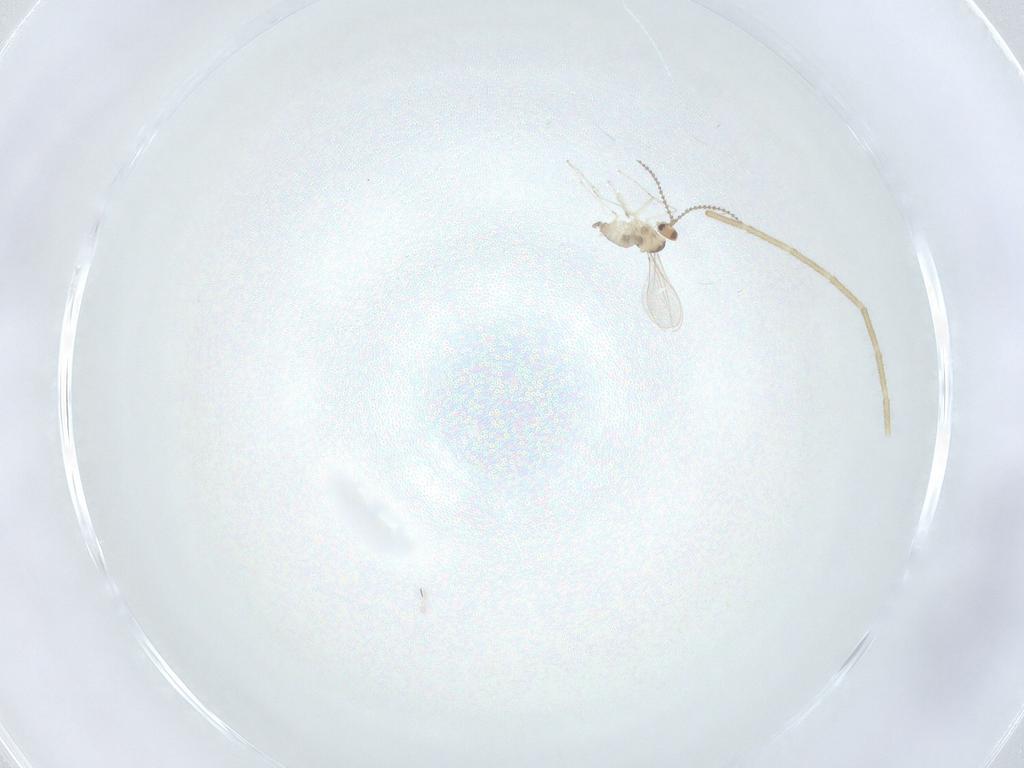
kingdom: Animalia
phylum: Arthropoda
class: Insecta
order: Diptera
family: Cecidomyiidae
